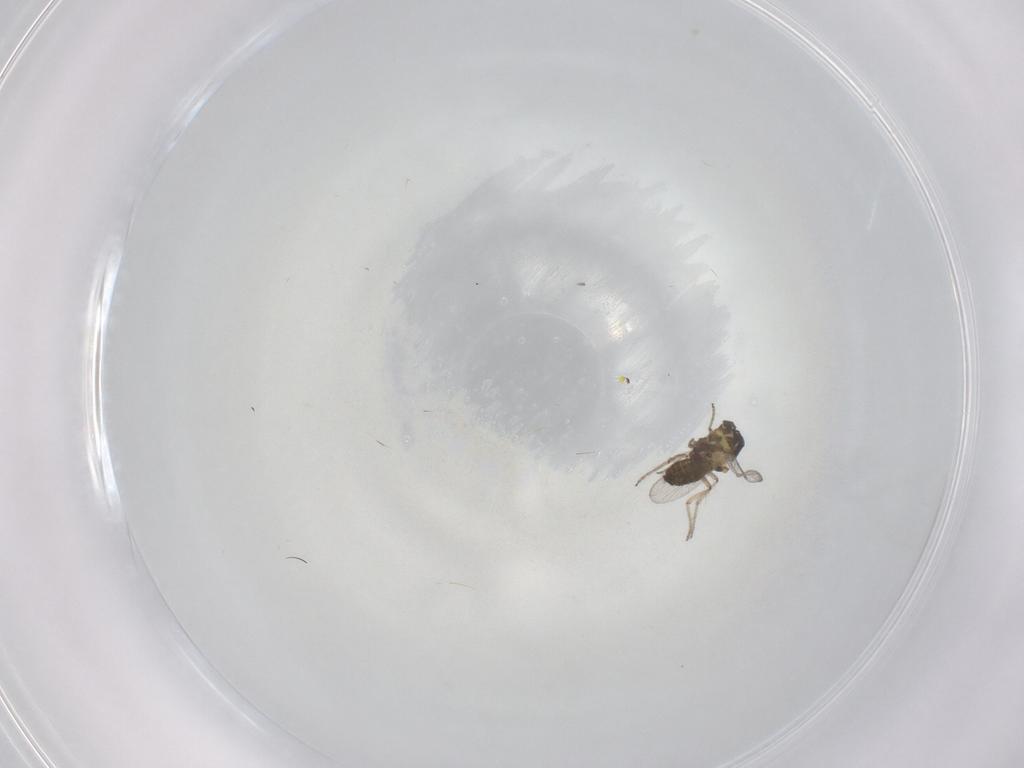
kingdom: Animalia
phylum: Arthropoda
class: Insecta
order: Diptera
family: Ceratopogonidae
